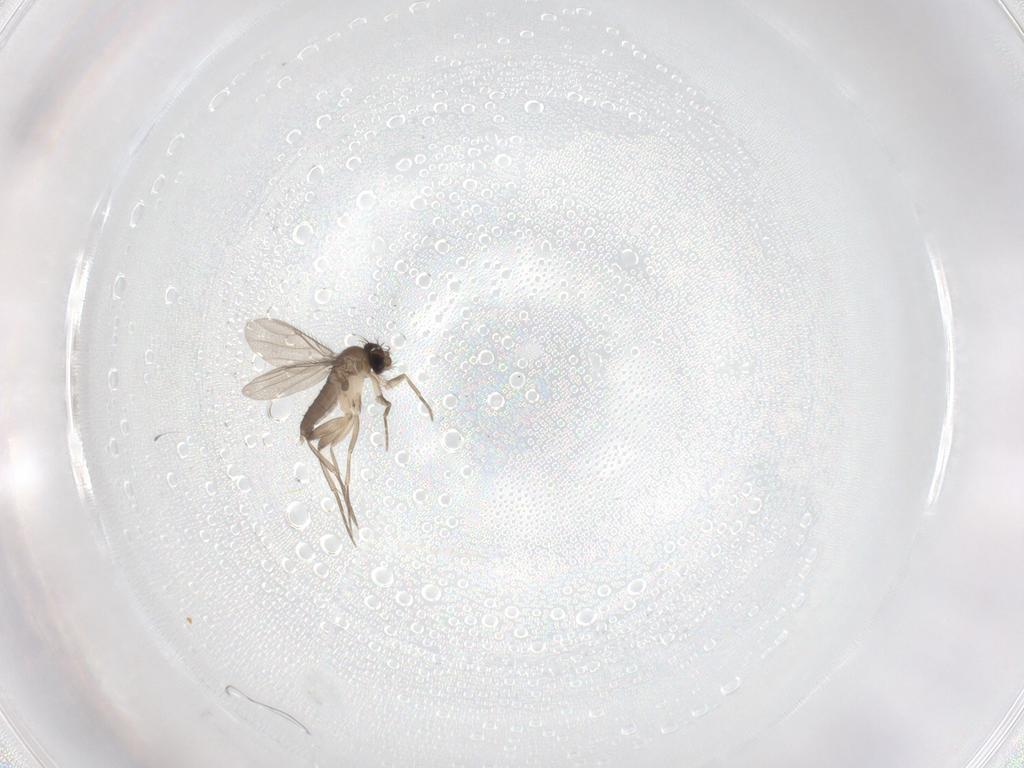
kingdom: Animalia
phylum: Arthropoda
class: Insecta
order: Diptera
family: Phoridae
